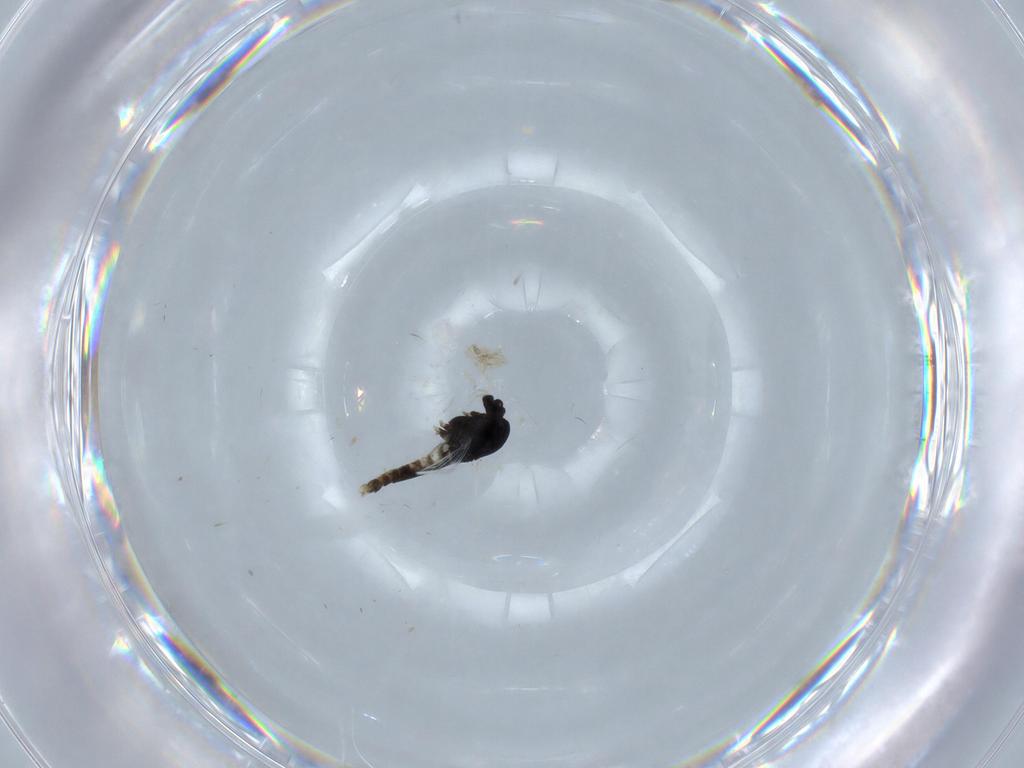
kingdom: Animalia
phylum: Arthropoda
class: Insecta
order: Diptera
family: Chironomidae
